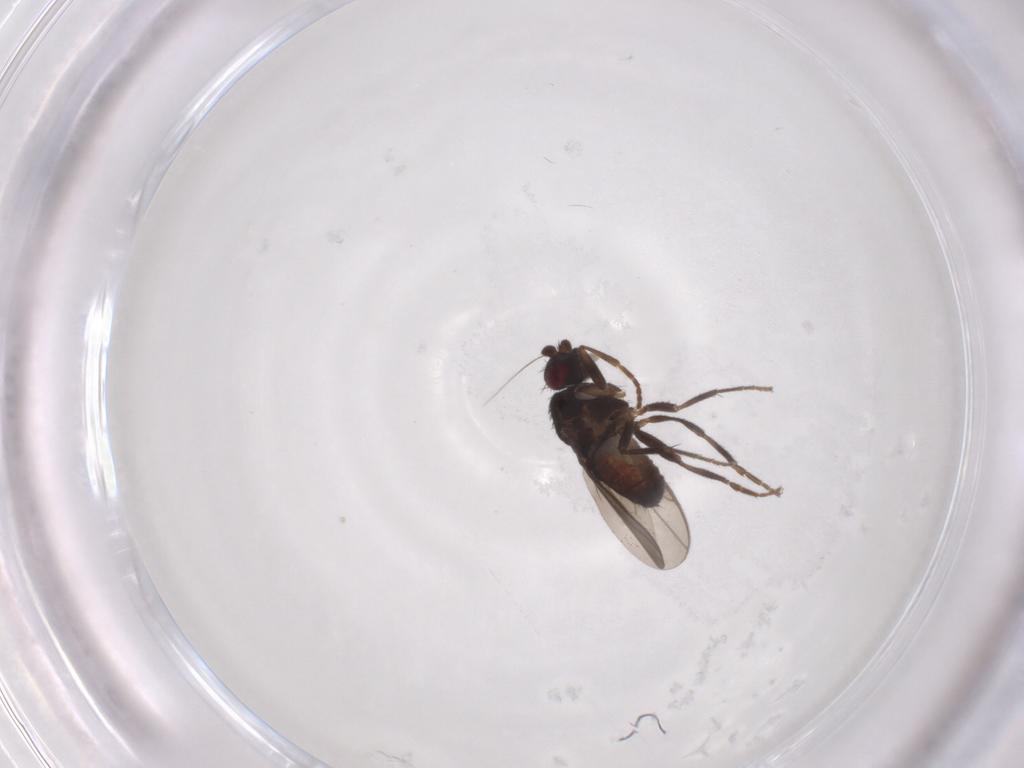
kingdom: Animalia
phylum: Arthropoda
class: Insecta
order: Diptera
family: Sphaeroceridae
